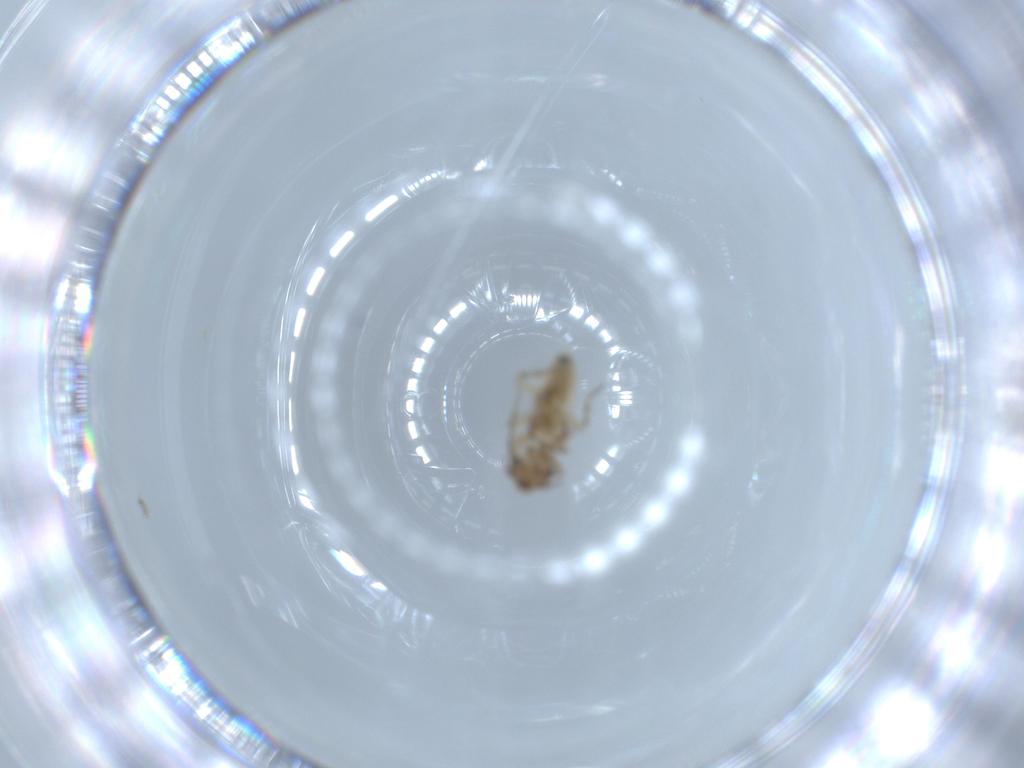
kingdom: Animalia
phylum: Arthropoda
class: Insecta
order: Psocodea
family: Lepidopsocidae
